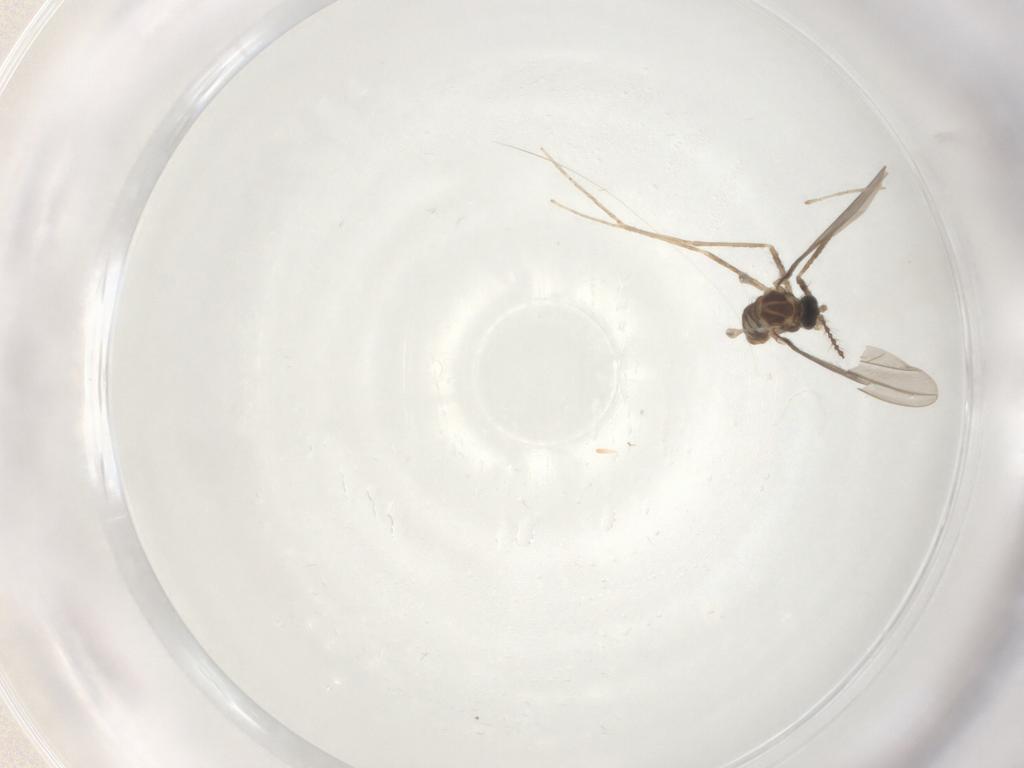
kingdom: Animalia
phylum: Arthropoda
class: Insecta
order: Diptera
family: Cecidomyiidae
